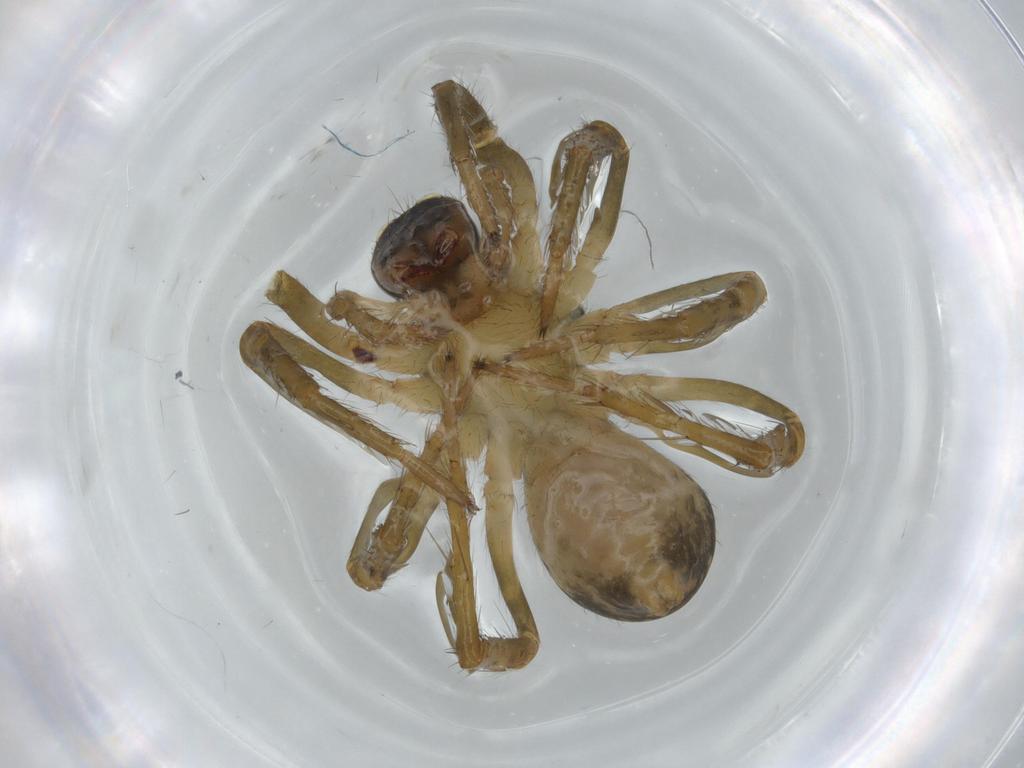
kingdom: Animalia
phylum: Arthropoda
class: Arachnida
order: Araneae
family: Lycosidae
